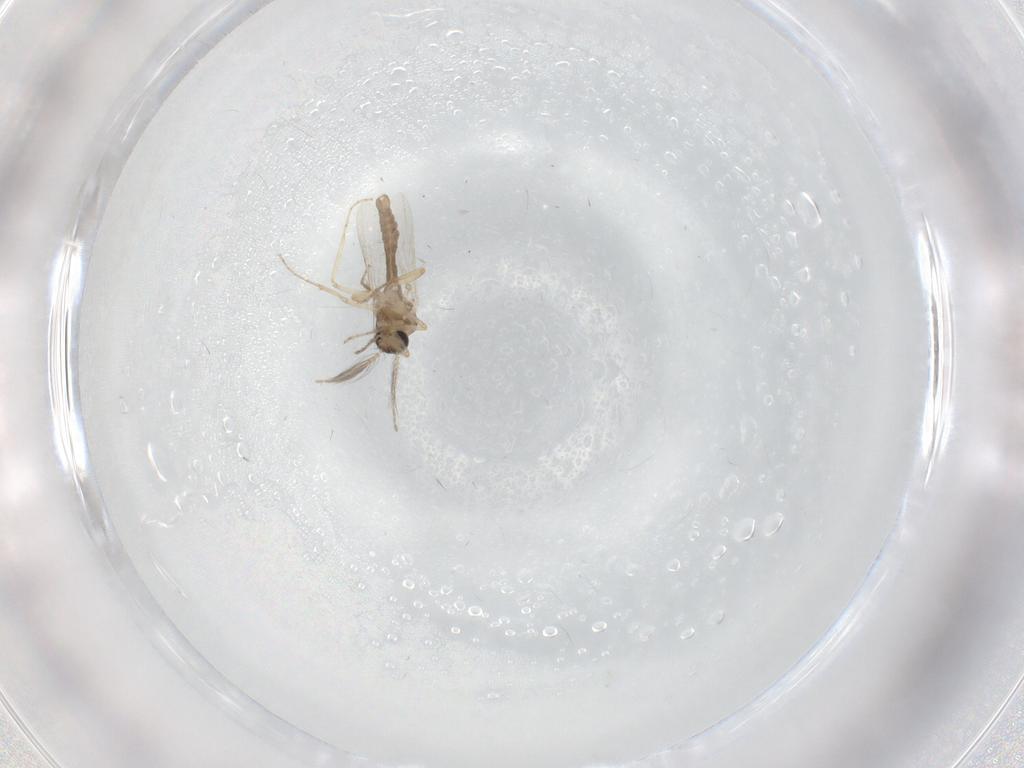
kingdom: Animalia
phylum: Arthropoda
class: Insecta
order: Diptera
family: Ceratopogonidae
